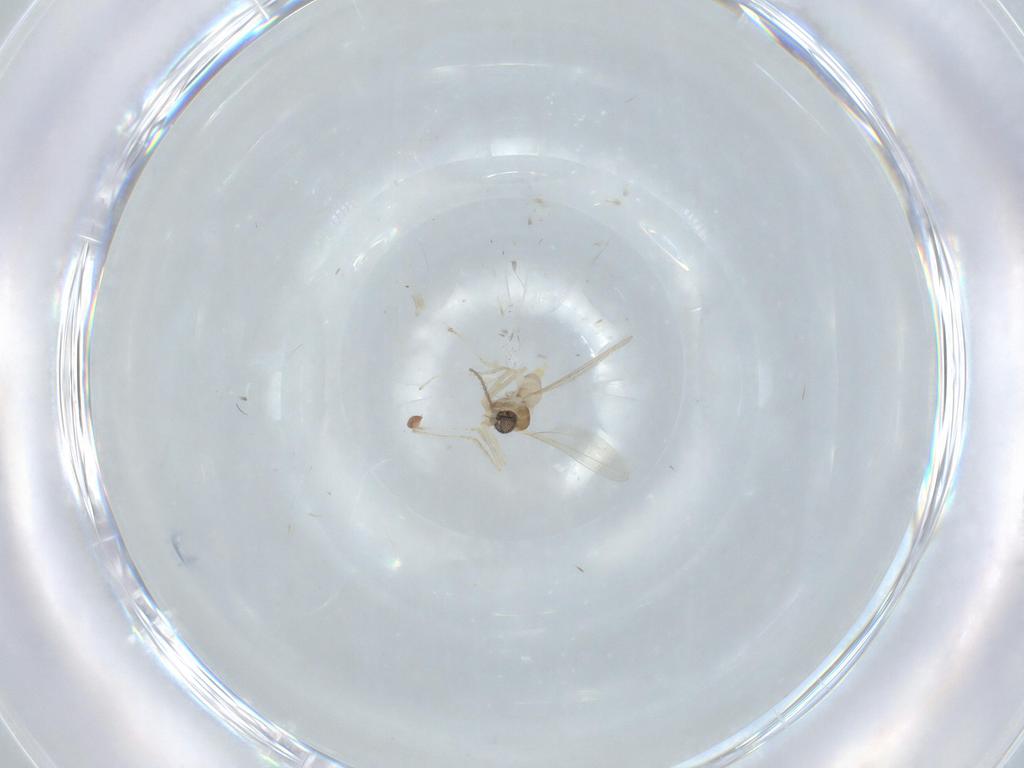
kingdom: Animalia
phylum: Arthropoda
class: Insecta
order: Diptera
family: Cecidomyiidae
